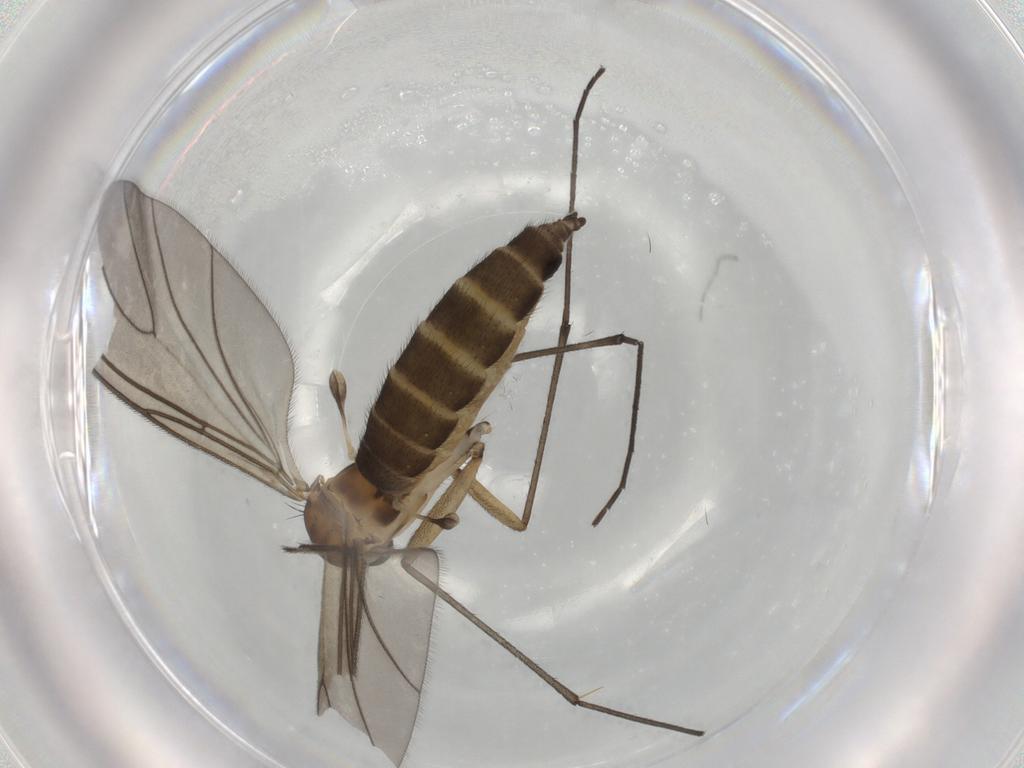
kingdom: Animalia
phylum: Arthropoda
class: Insecta
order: Diptera
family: Sciaridae
